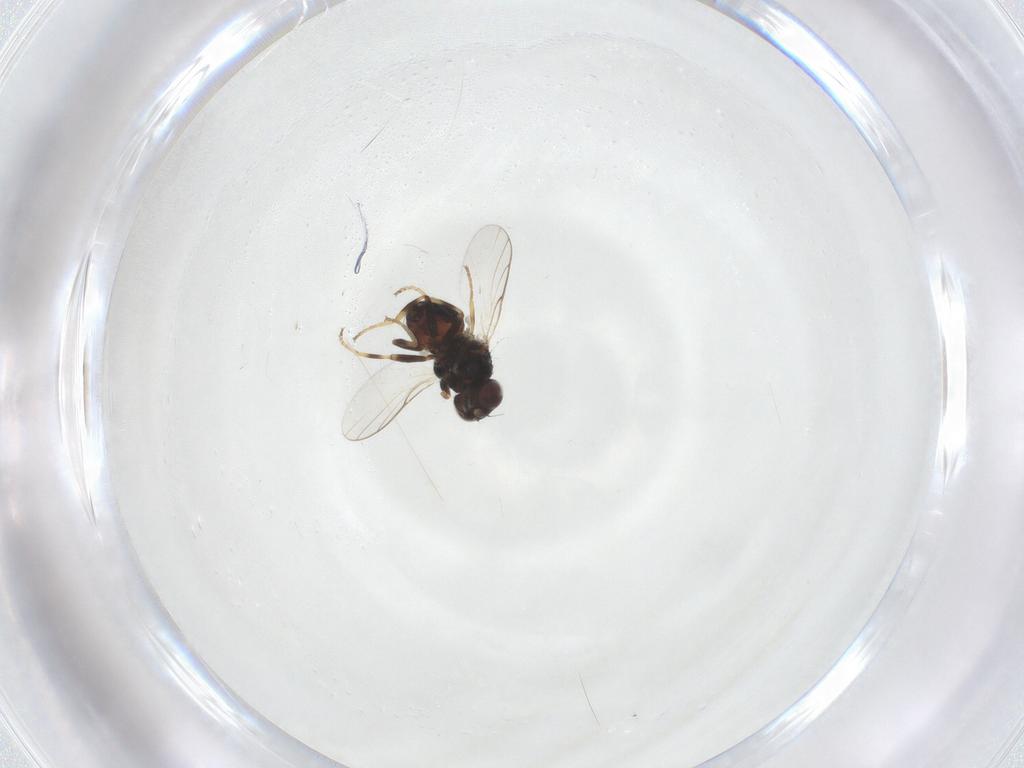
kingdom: Animalia
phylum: Arthropoda
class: Insecta
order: Diptera
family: Chloropidae
